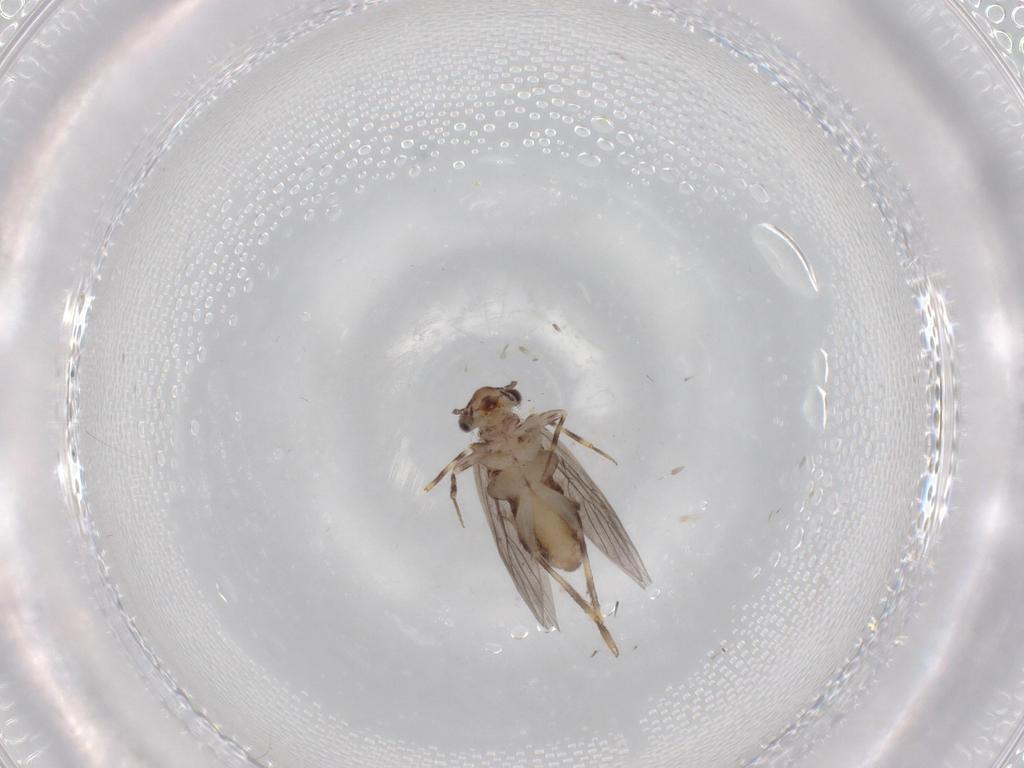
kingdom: Animalia
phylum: Arthropoda
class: Insecta
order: Psocodea
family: Lepidopsocidae
